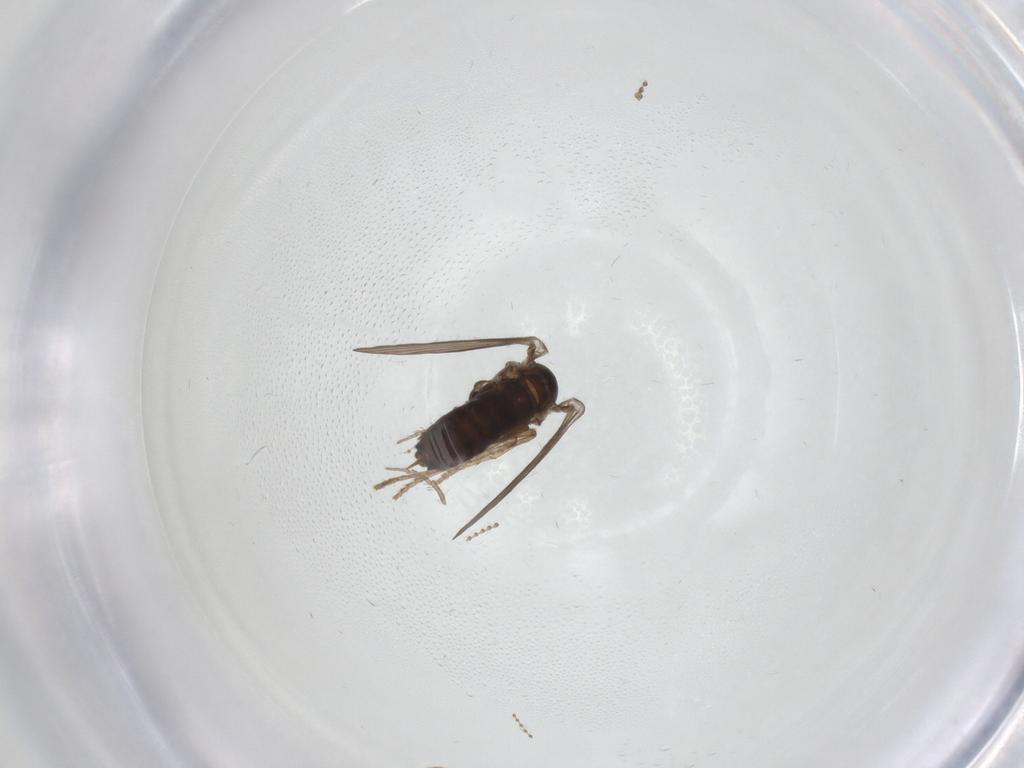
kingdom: Animalia
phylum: Arthropoda
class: Insecta
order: Diptera
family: Psychodidae
